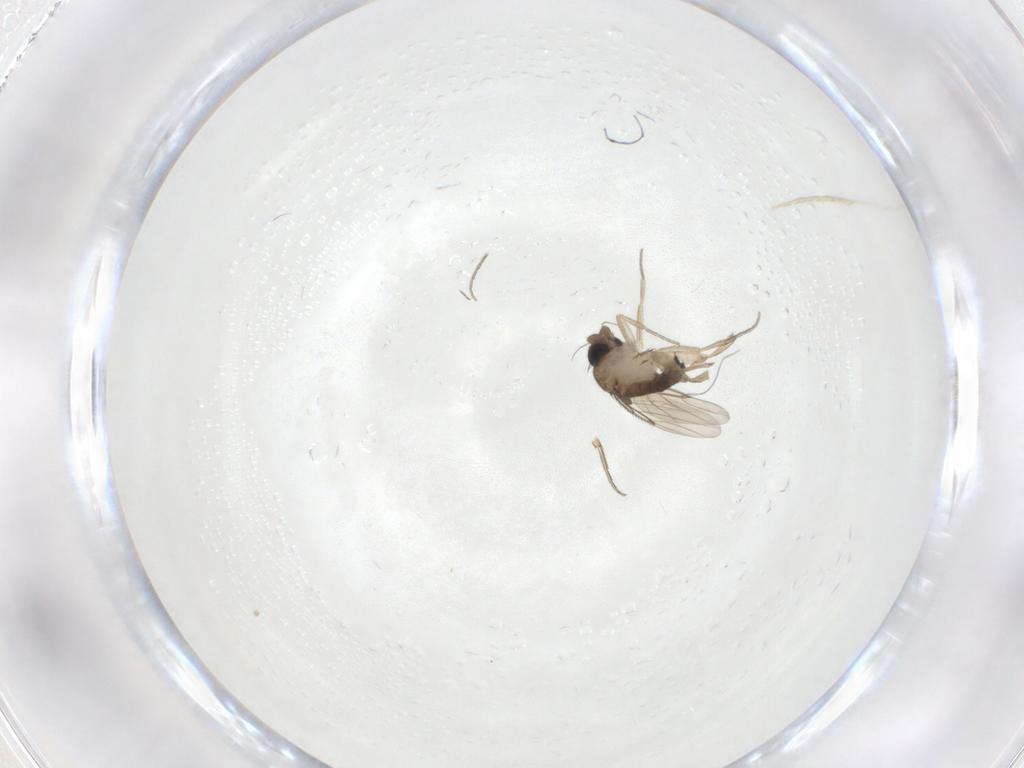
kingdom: Animalia
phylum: Arthropoda
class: Insecta
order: Diptera
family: Phoridae
